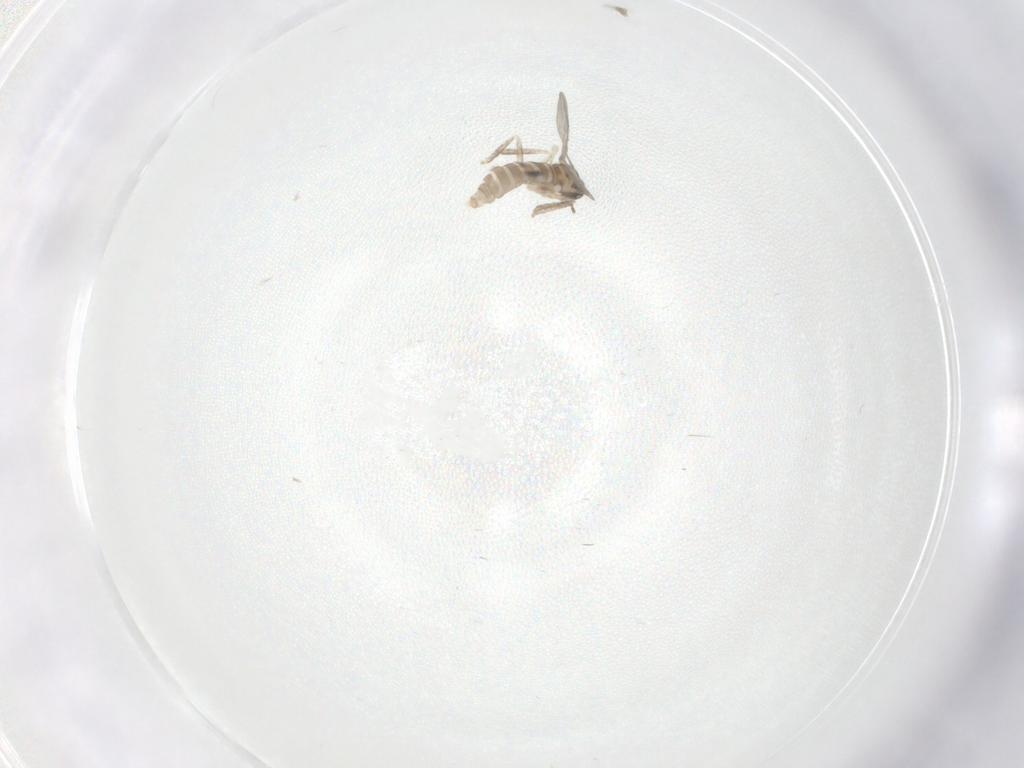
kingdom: Animalia
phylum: Arthropoda
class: Insecta
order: Diptera
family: Cecidomyiidae
